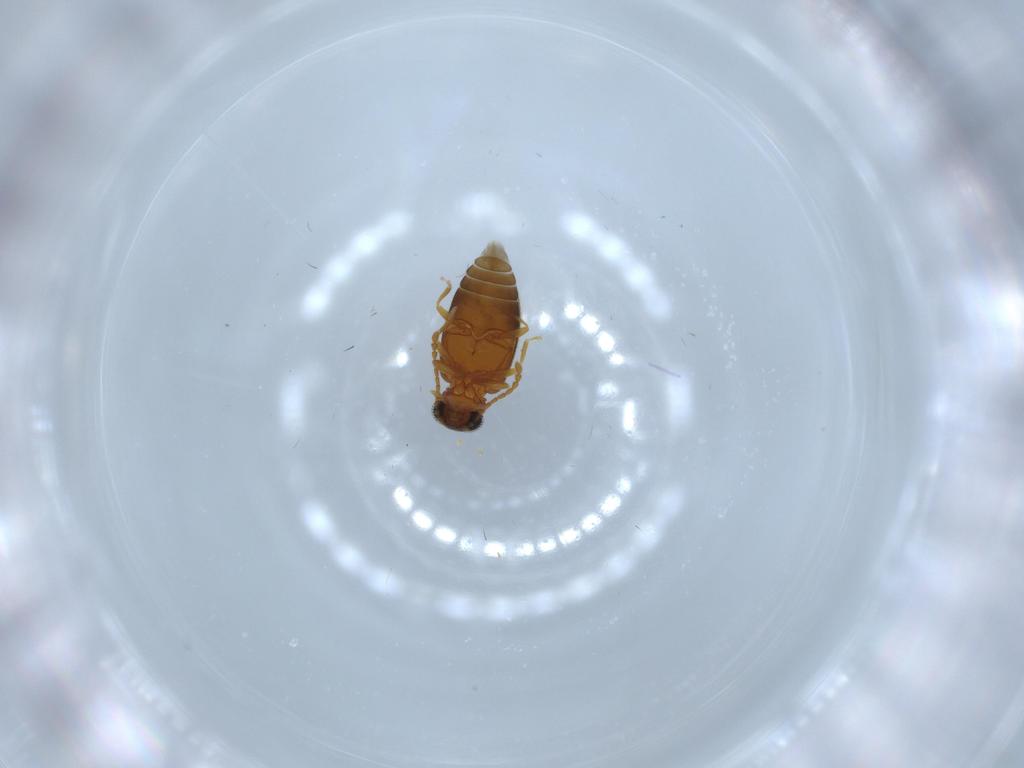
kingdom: Animalia
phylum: Arthropoda
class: Insecta
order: Coleoptera
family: Aderidae
